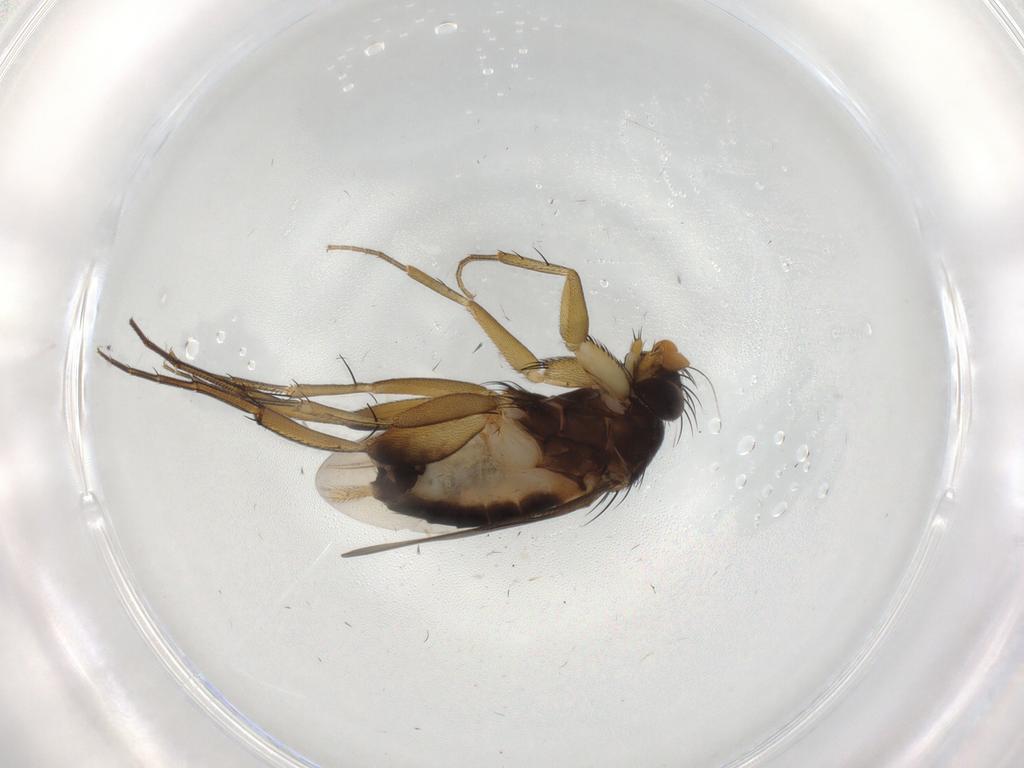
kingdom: Animalia
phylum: Arthropoda
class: Insecta
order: Diptera
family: Phoridae
